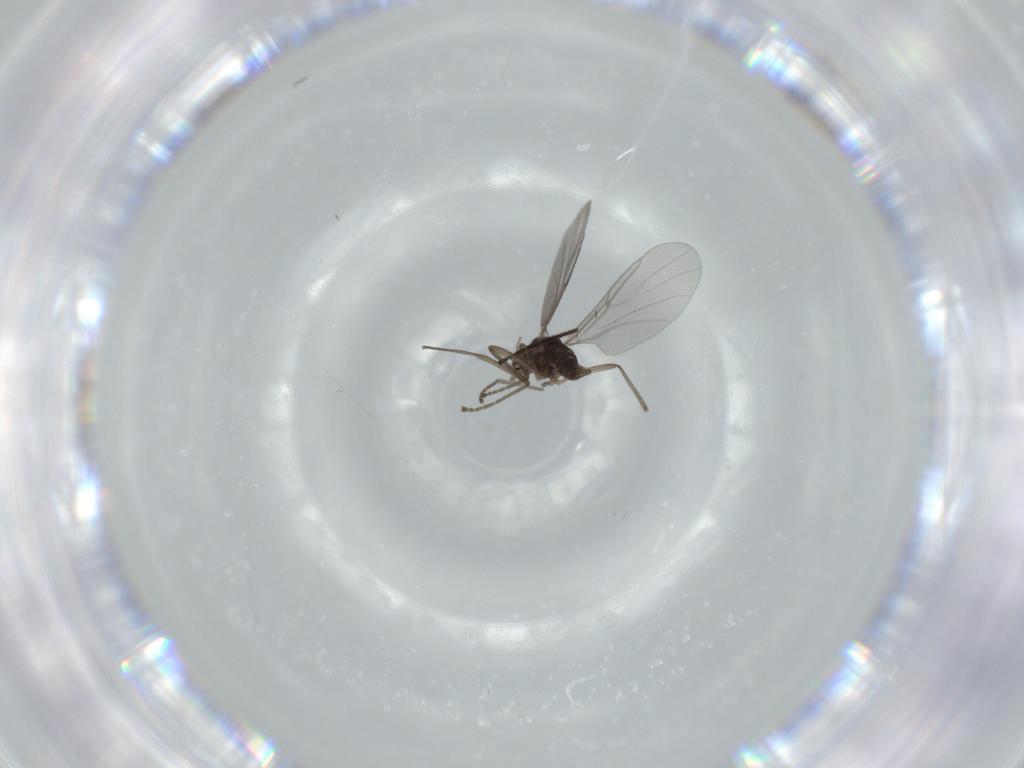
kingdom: Animalia
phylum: Arthropoda
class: Insecta
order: Diptera
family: Cecidomyiidae
